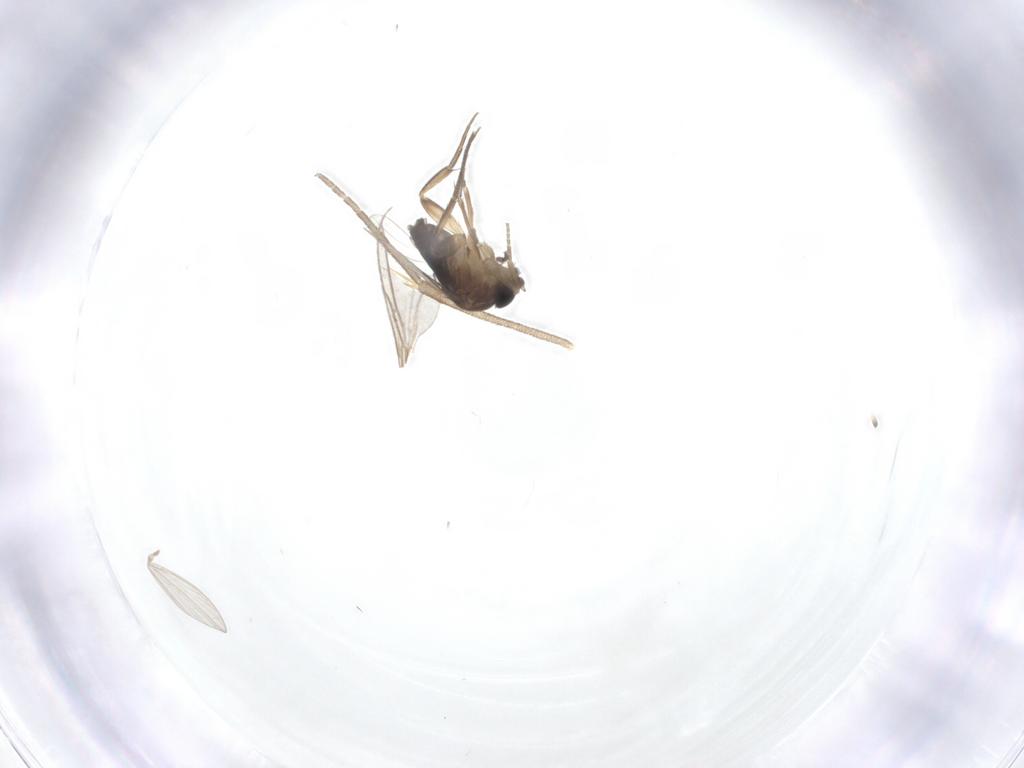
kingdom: Animalia
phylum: Arthropoda
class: Insecta
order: Diptera
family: Phoridae
